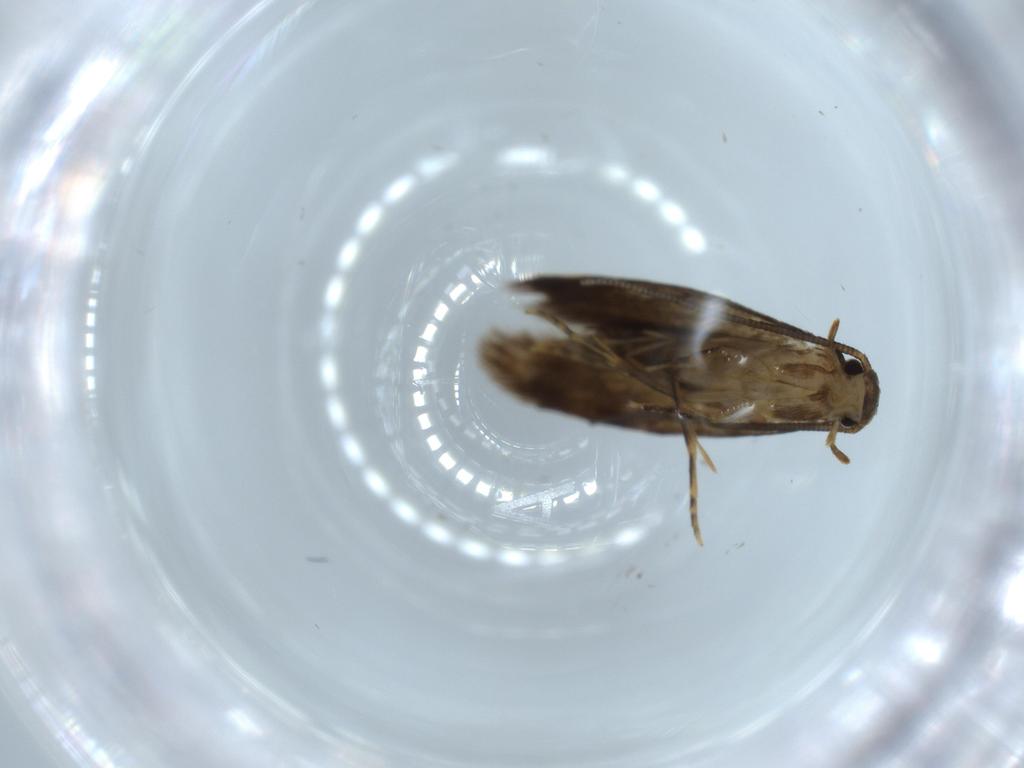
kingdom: Animalia
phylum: Arthropoda
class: Insecta
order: Lepidoptera
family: Tineidae
